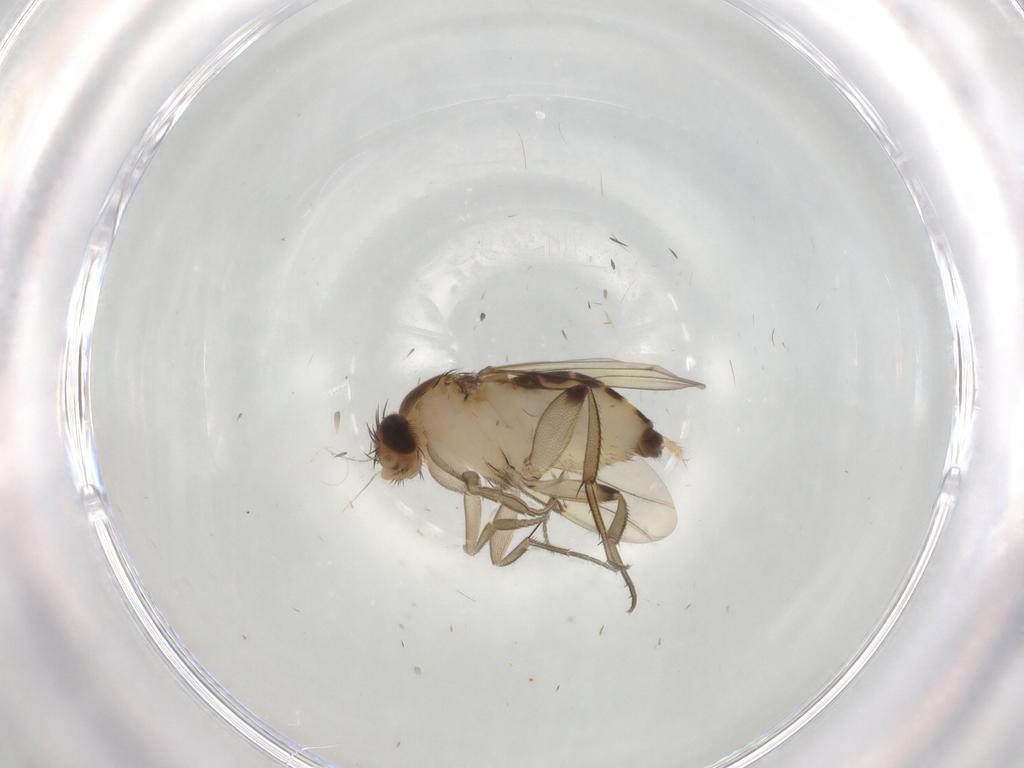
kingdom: Animalia
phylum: Arthropoda
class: Insecta
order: Diptera
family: Phoridae
